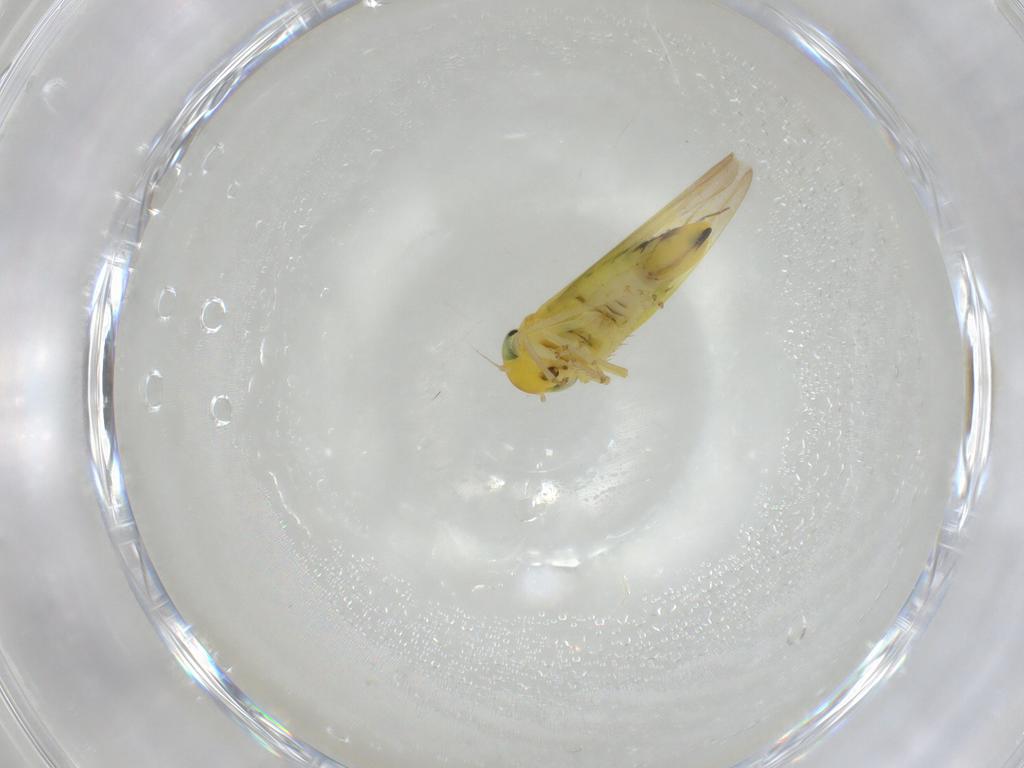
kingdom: Animalia
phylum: Arthropoda
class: Insecta
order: Hemiptera
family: Cicadellidae
